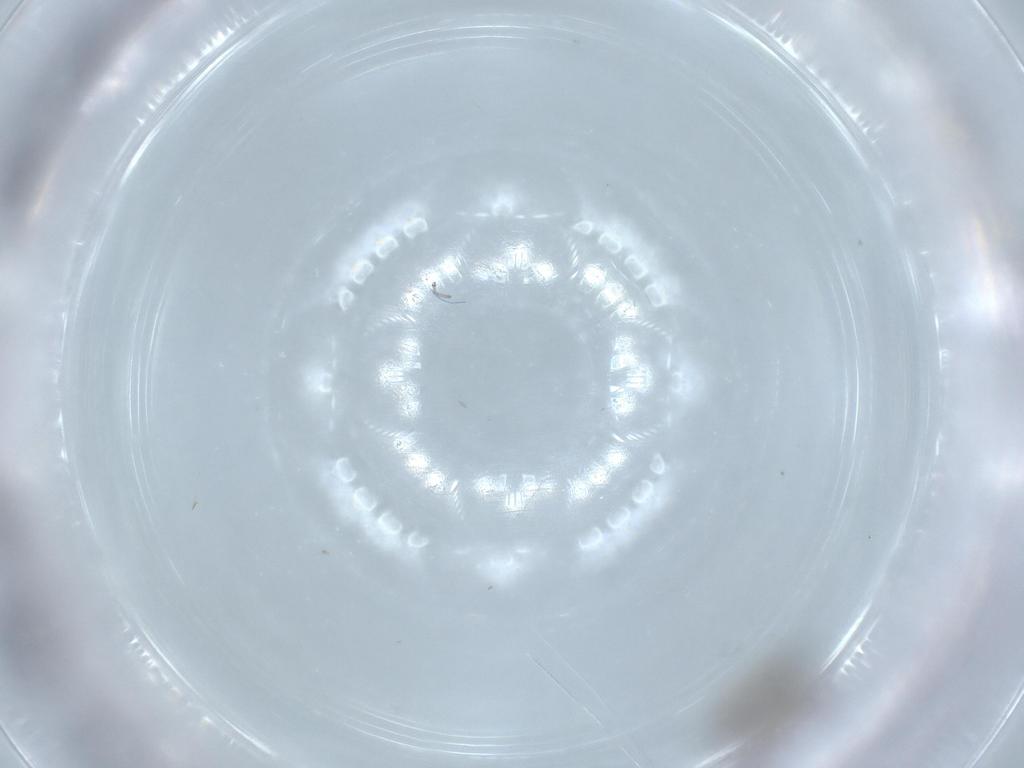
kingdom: Animalia
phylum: Arthropoda
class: Insecta
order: Hymenoptera
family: Formicidae
